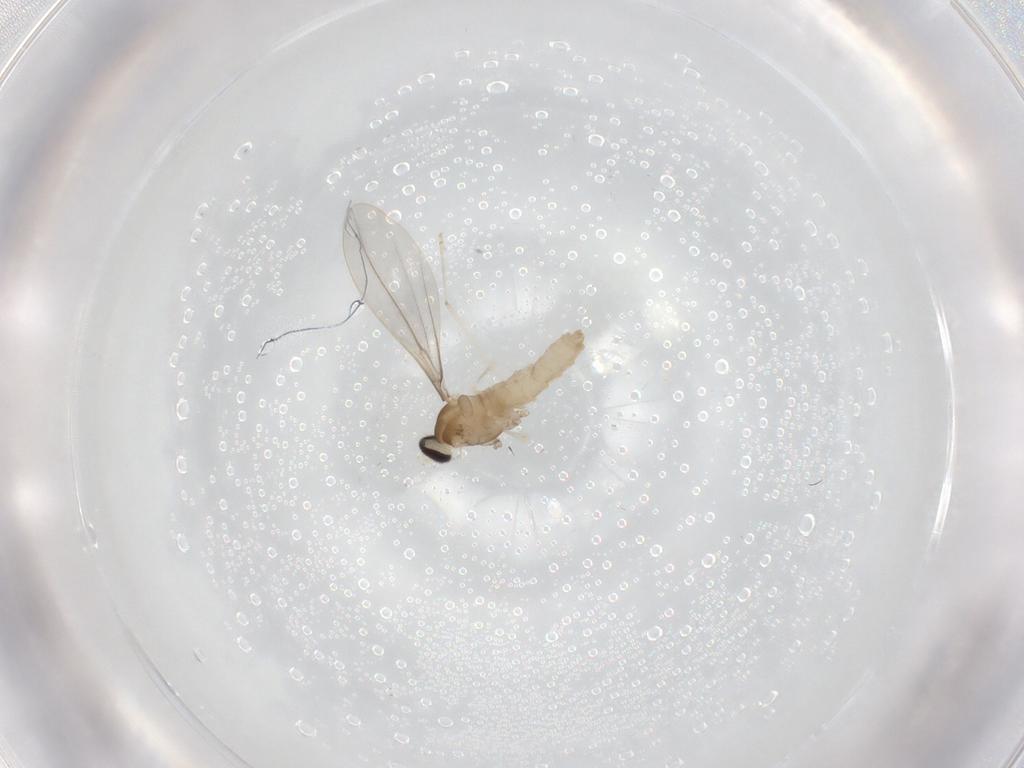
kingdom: Animalia
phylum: Arthropoda
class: Insecta
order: Diptera
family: Cecidomyiidae
